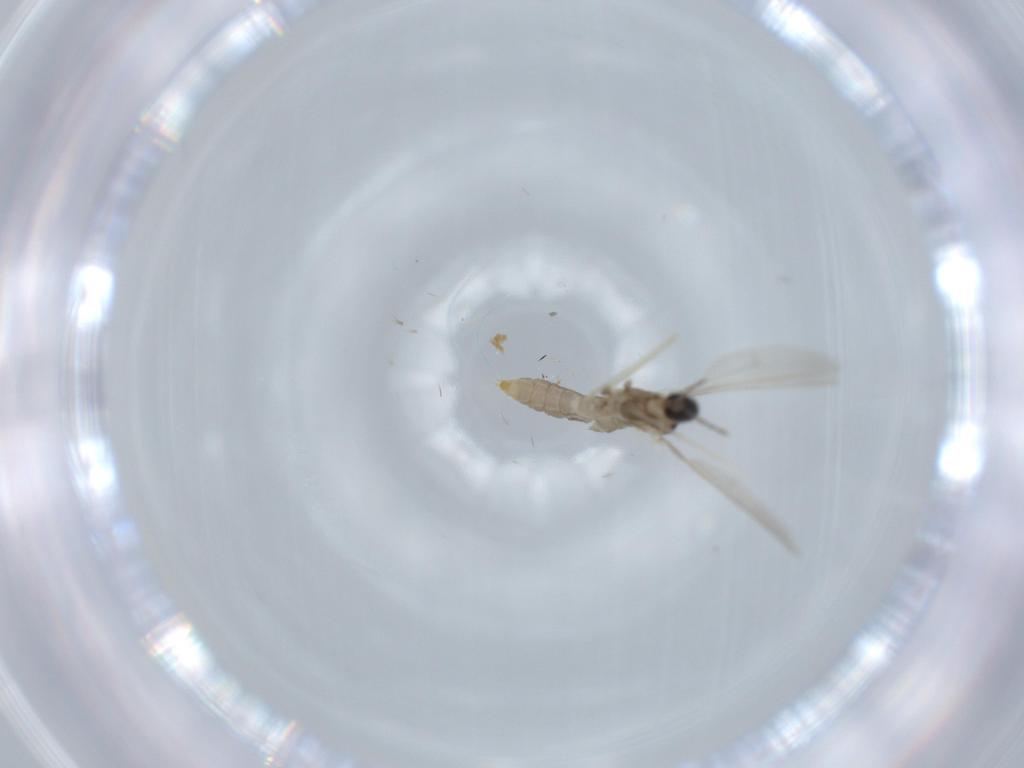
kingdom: Animalia
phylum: Arthropoda
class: Insecta
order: Diptera
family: Cecidomyiidae
